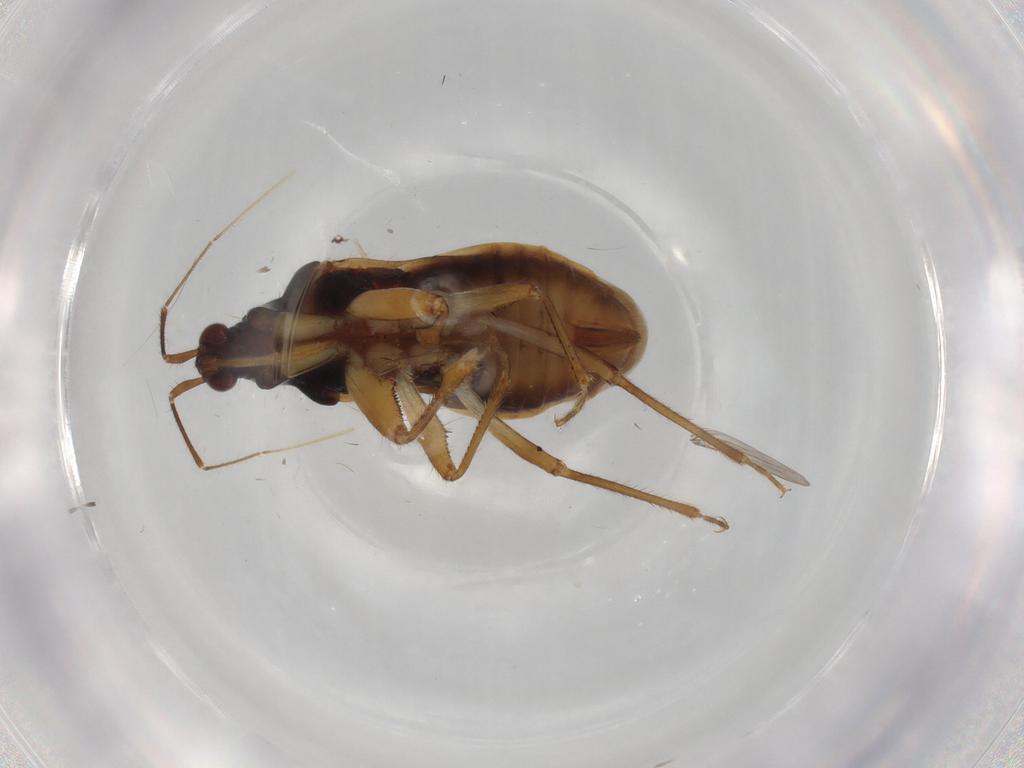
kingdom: Animalia
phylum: Arthropoda
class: Insecta
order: Hemiptera
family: Nabidae
